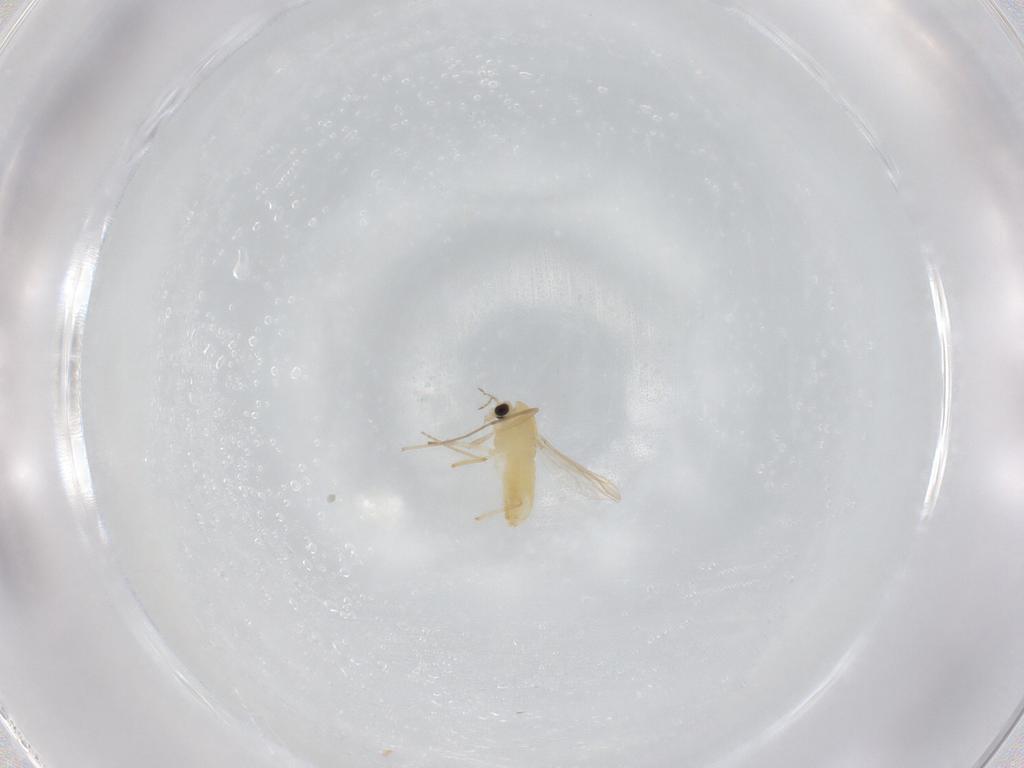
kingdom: Animalia
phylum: Arthropoda
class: Insecta
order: Diptera
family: Chironomidae
